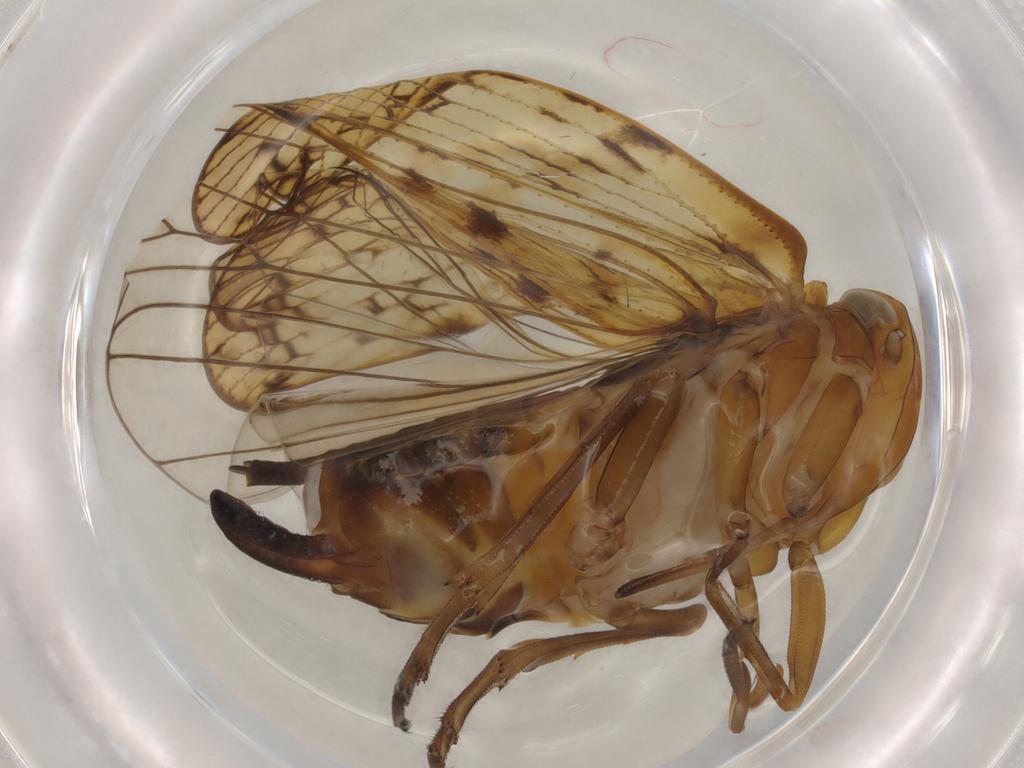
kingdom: Animalia
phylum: Arthropoda
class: Insecta
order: Hemiptera
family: Cixiidae
